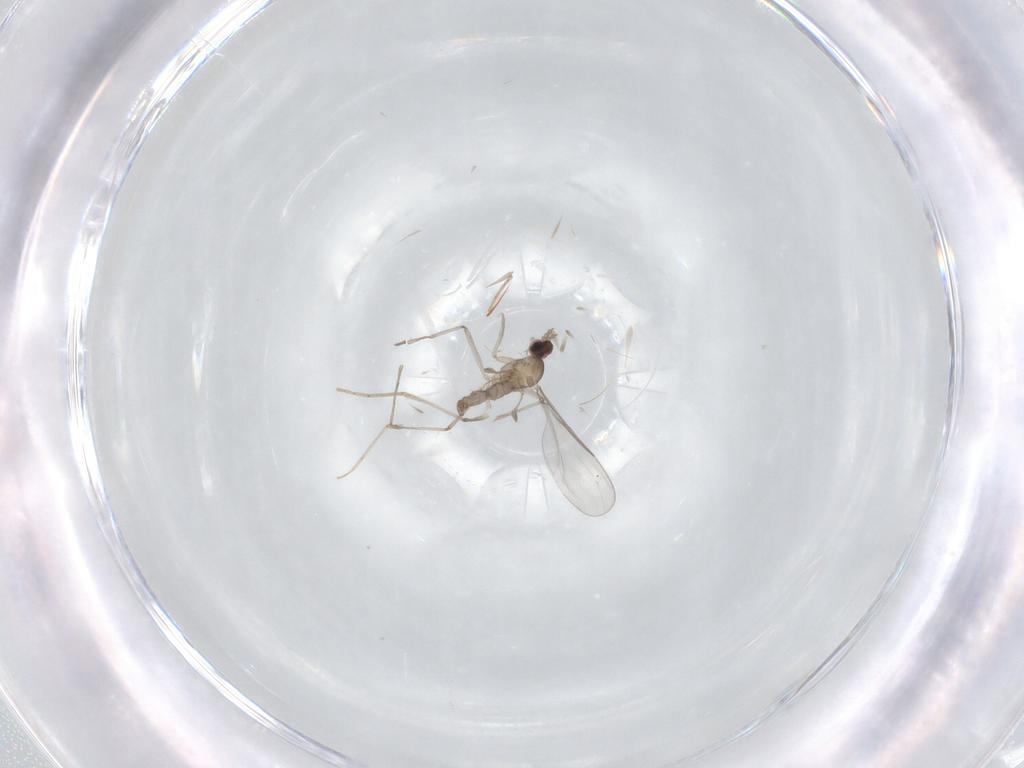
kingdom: Animalia
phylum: Arthropoda
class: Insecta
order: Diptera
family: Cecidomyiidae
